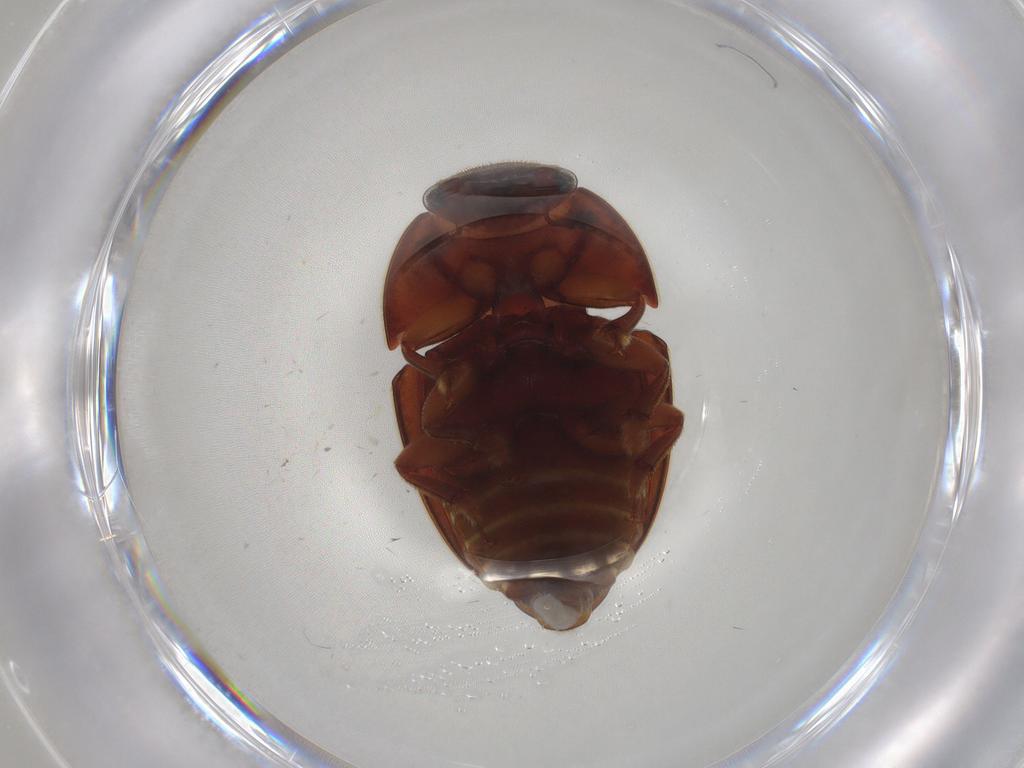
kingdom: Animalia
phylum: Arthropoda
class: Insecta
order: Coleoptera
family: Nitidulidae
